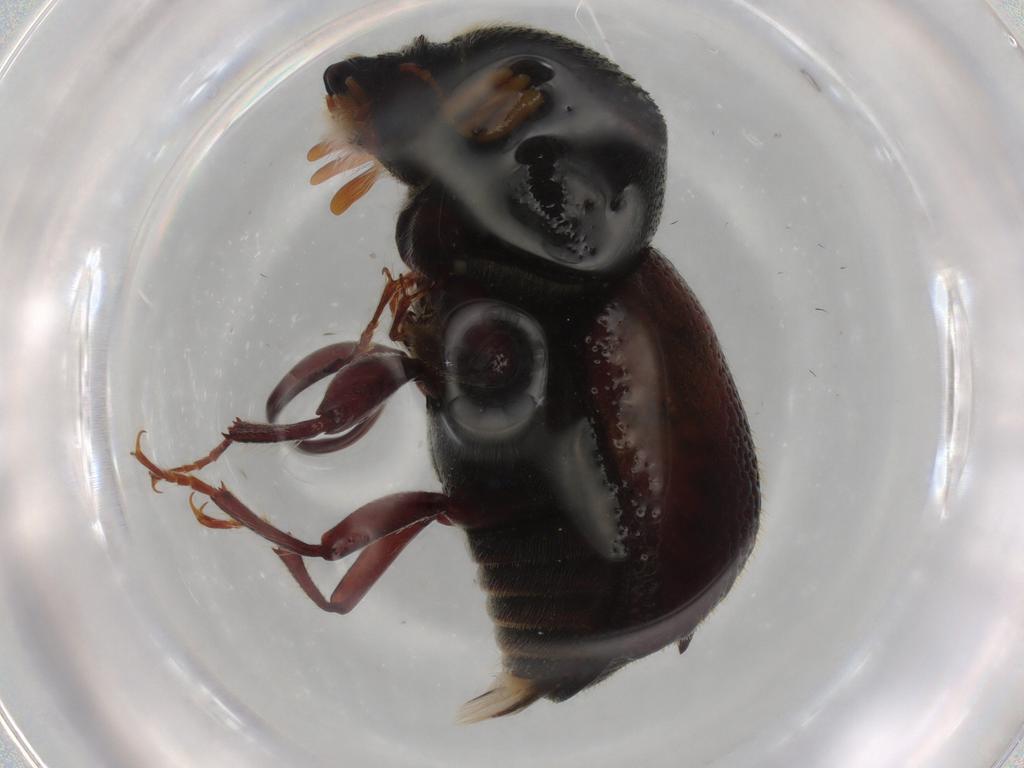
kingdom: Animalia
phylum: Arthropoda
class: Insecta
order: Coleoptera
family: Bostrichidae
